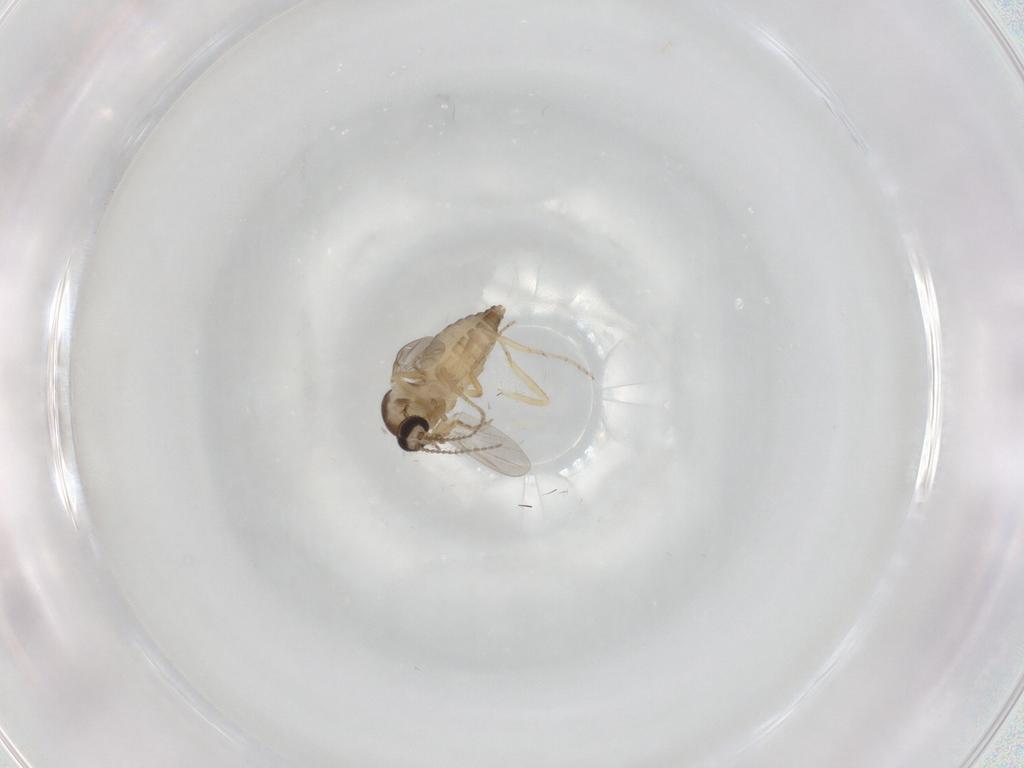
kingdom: Animalia
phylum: Arthropoda
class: Insecta
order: Diptera
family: Ceratopogonidae
